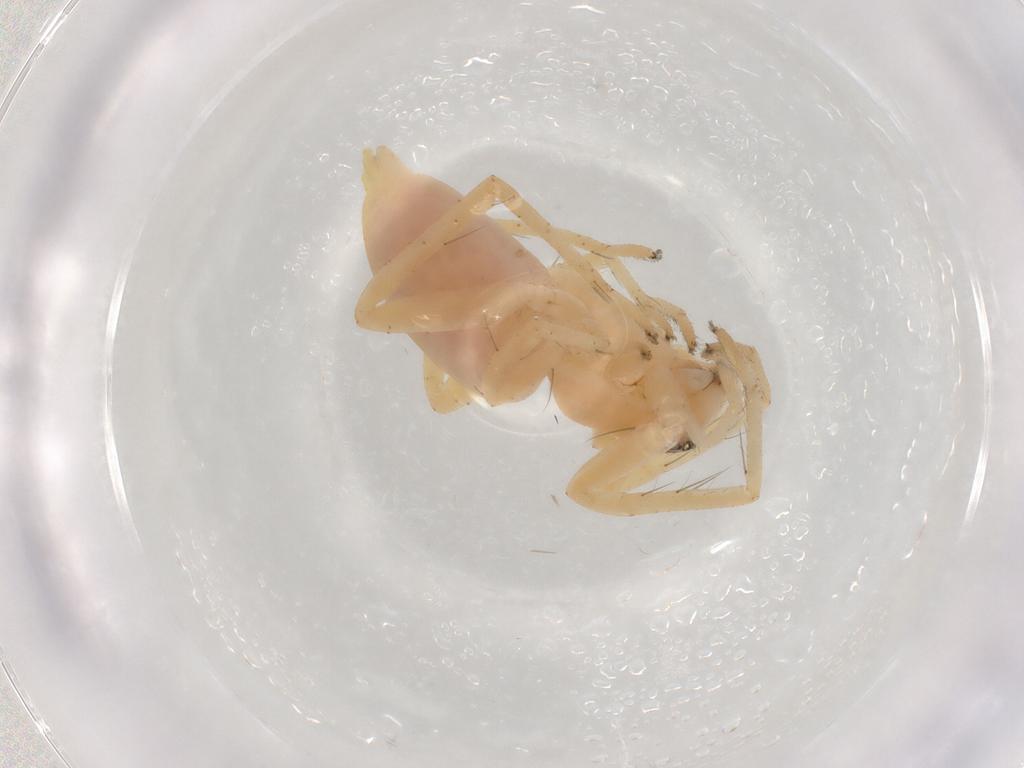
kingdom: Animalia
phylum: Arthropoda
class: Arachnida
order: Araneae
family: Anyphaenidae
